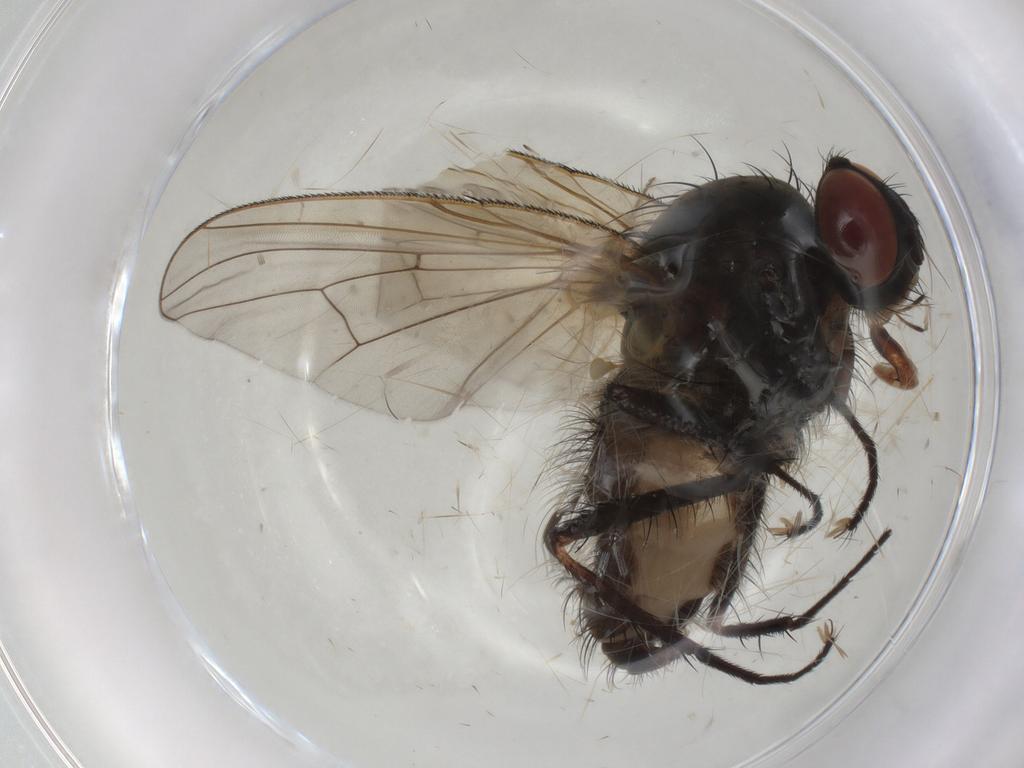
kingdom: Animalia
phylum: Arthropoda
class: Insecta
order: Diptera
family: Anthomyiidae
